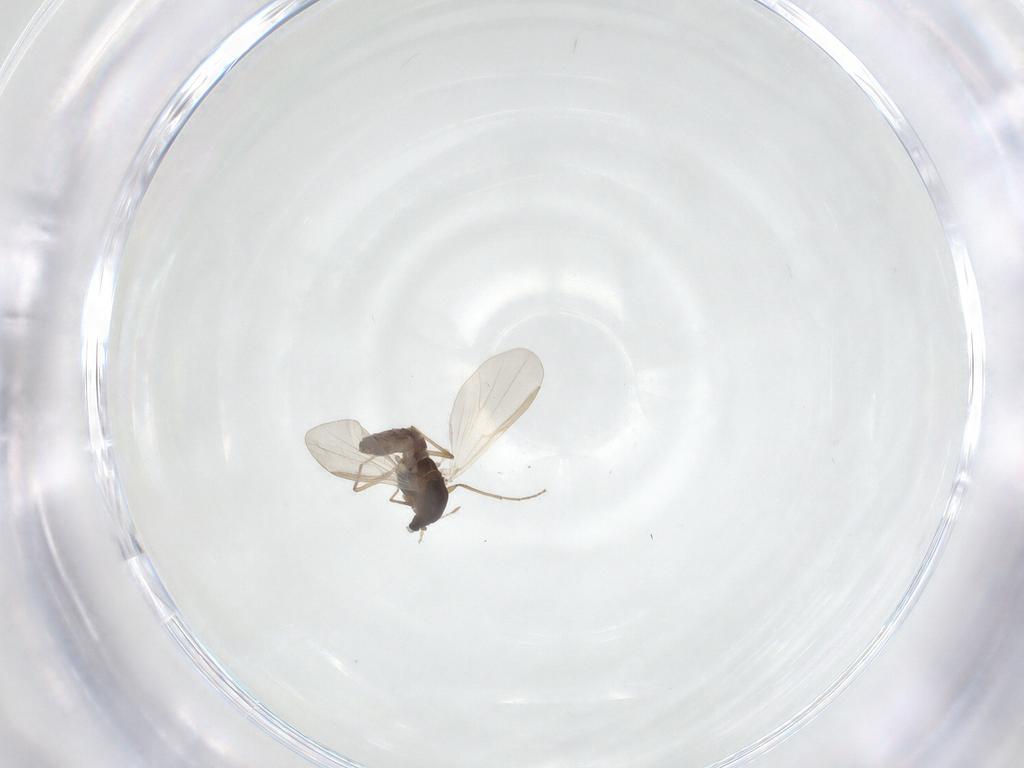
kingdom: Animalia
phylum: Arthropoda
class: Insecta
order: Diptera
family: Chironomidae
